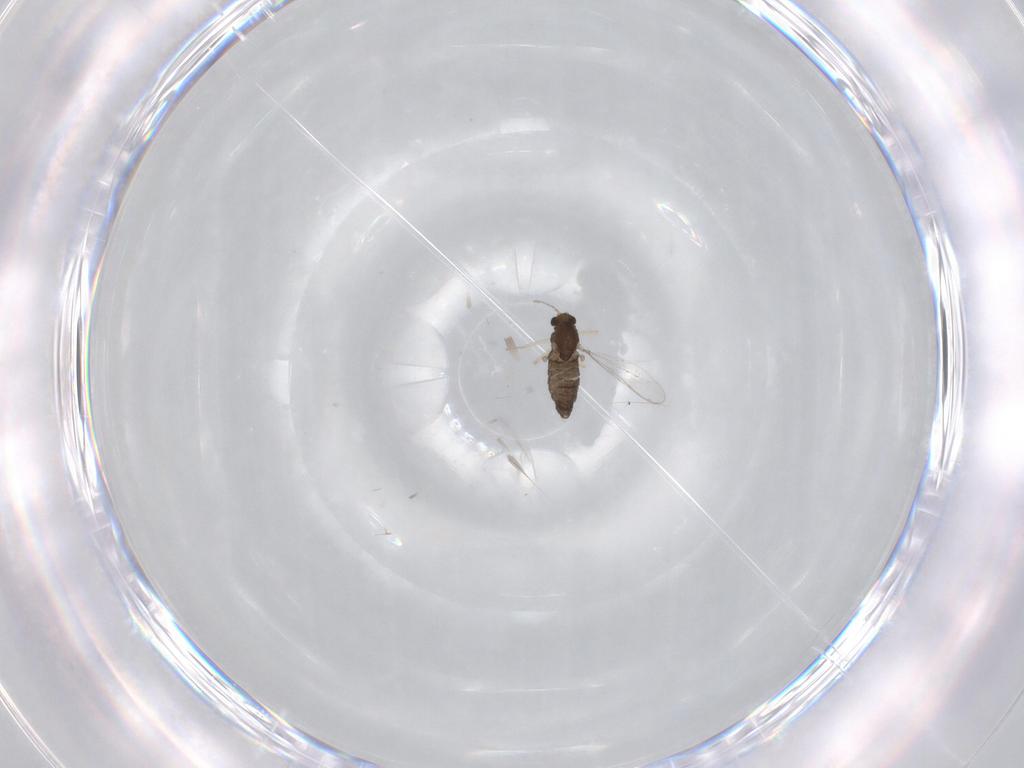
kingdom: Animalia
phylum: Arthropoda
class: Insecta
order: Diptera
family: Chironomidae
